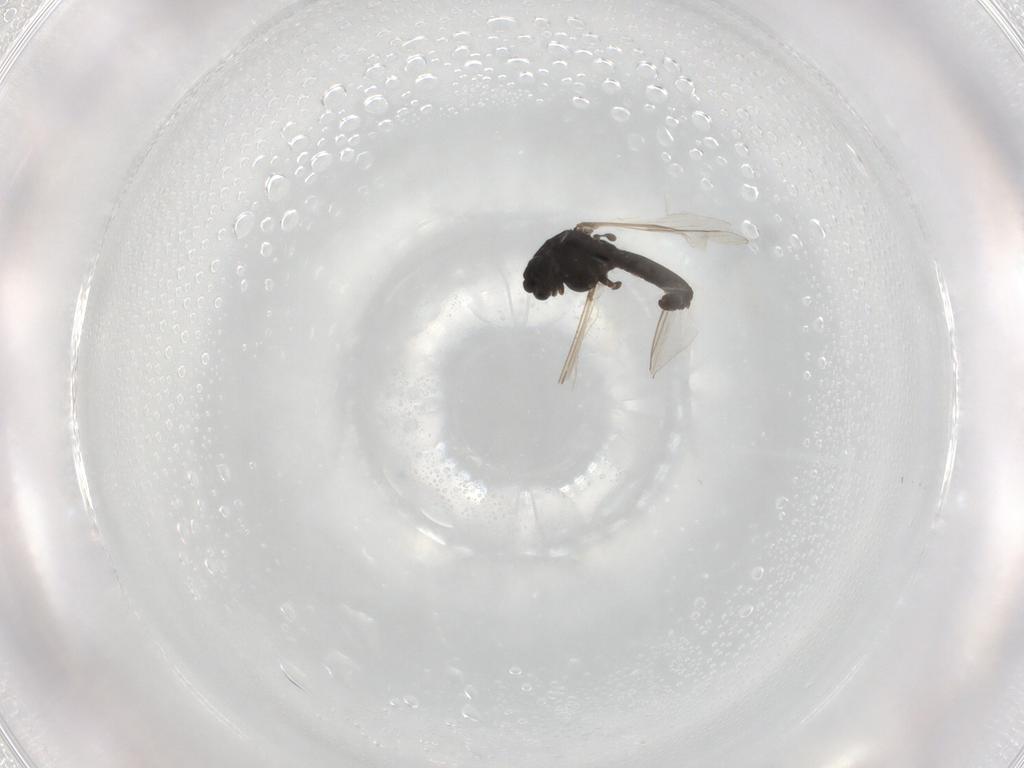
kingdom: Animalia
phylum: Arthropoda
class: Insecta
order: Diptera
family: Chironomidae
